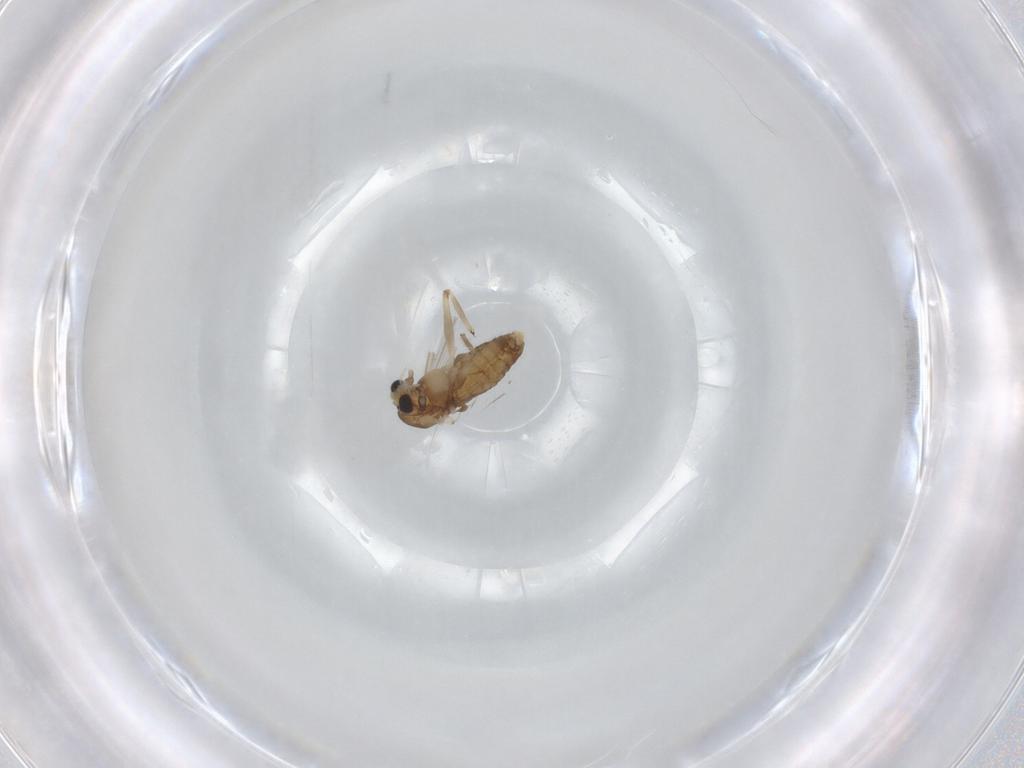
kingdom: Animalia
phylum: Arthropoda
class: Insecta
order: Diptera
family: Chironomidae
